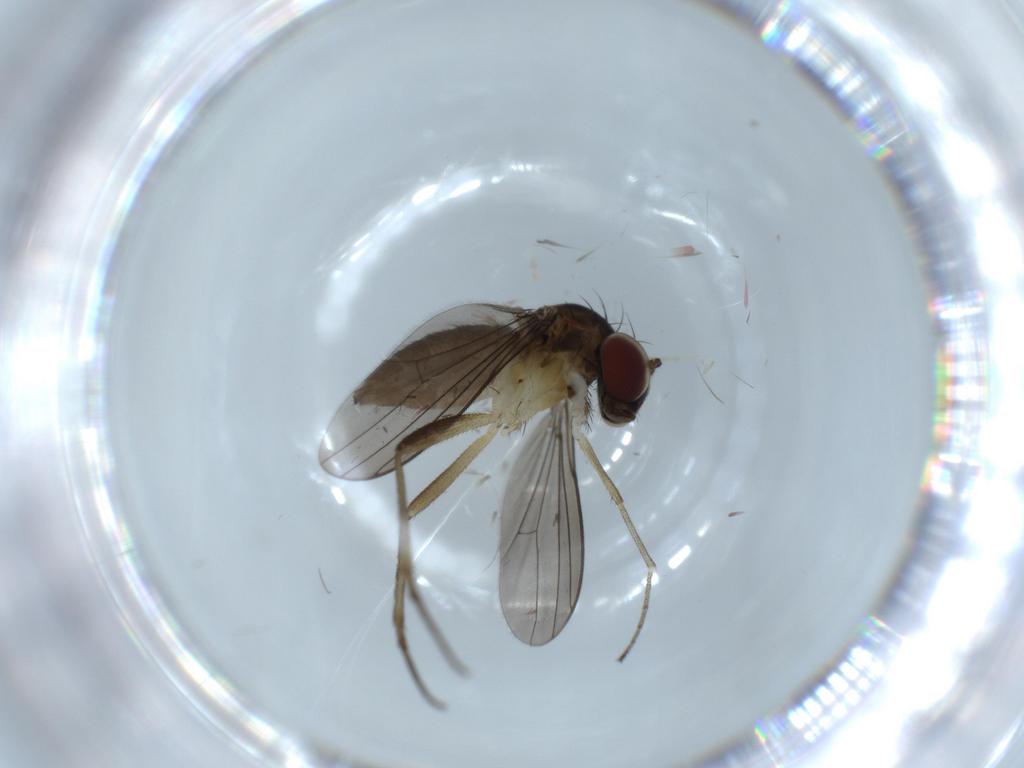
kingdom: Animalia
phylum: Arthropoda
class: Insecta
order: Diptera
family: Dolichopodidae
